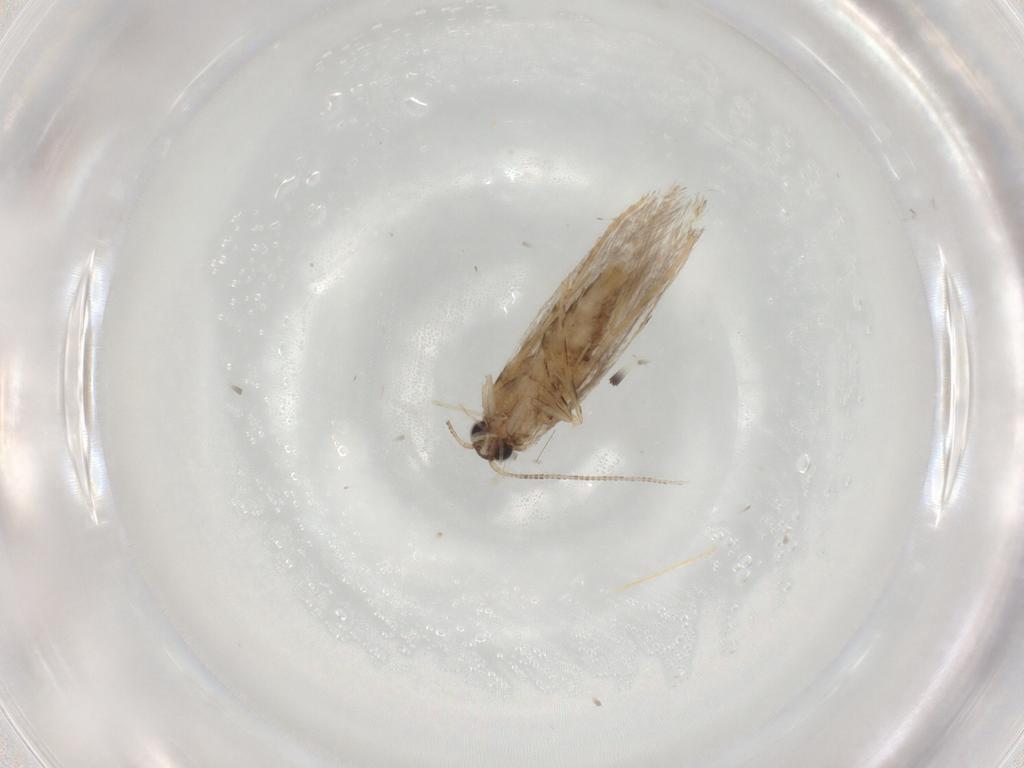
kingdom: Animalia
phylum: Arthropoda
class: Insecta
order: Lepidoptera
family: Tineidae
